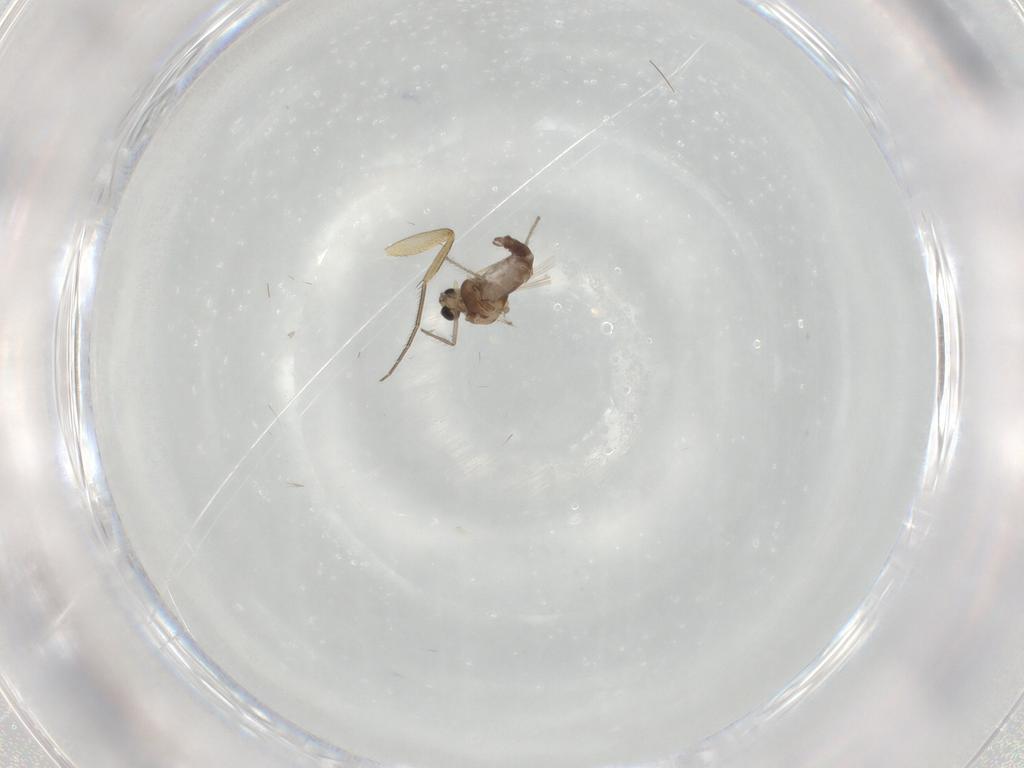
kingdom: Animalia
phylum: Arthropoda
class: Insecta
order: Diptera
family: Chironomidae
